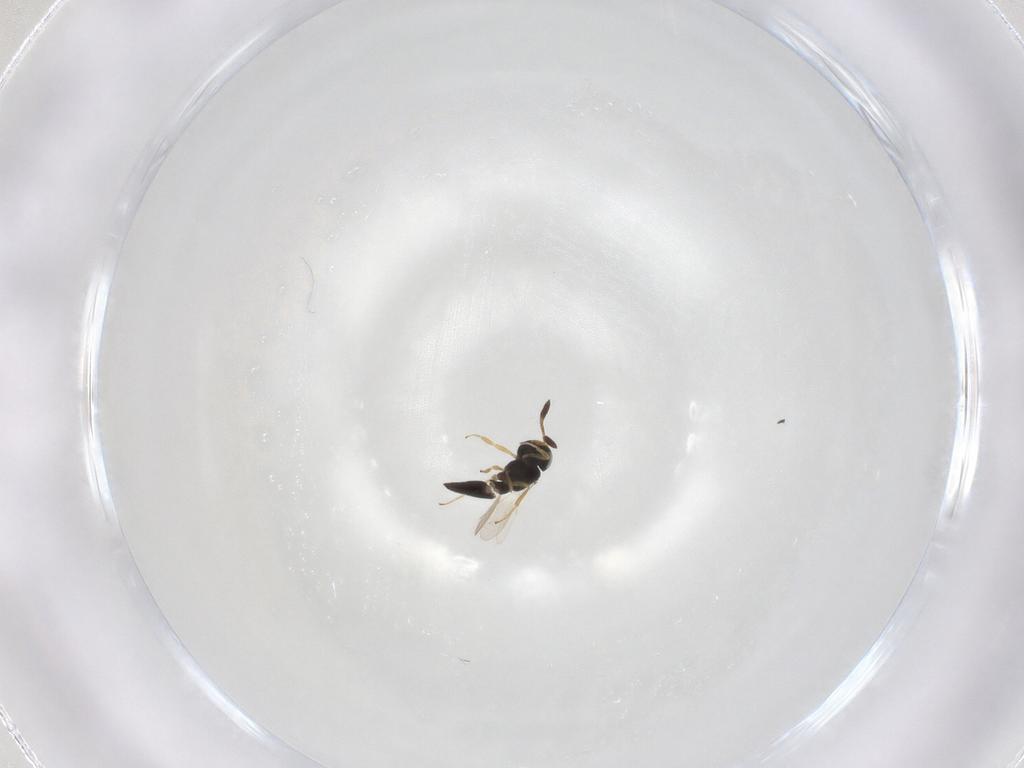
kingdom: Animalia
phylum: Arthropoda
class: Insecta
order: Hymenoptera
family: Scelionidae
